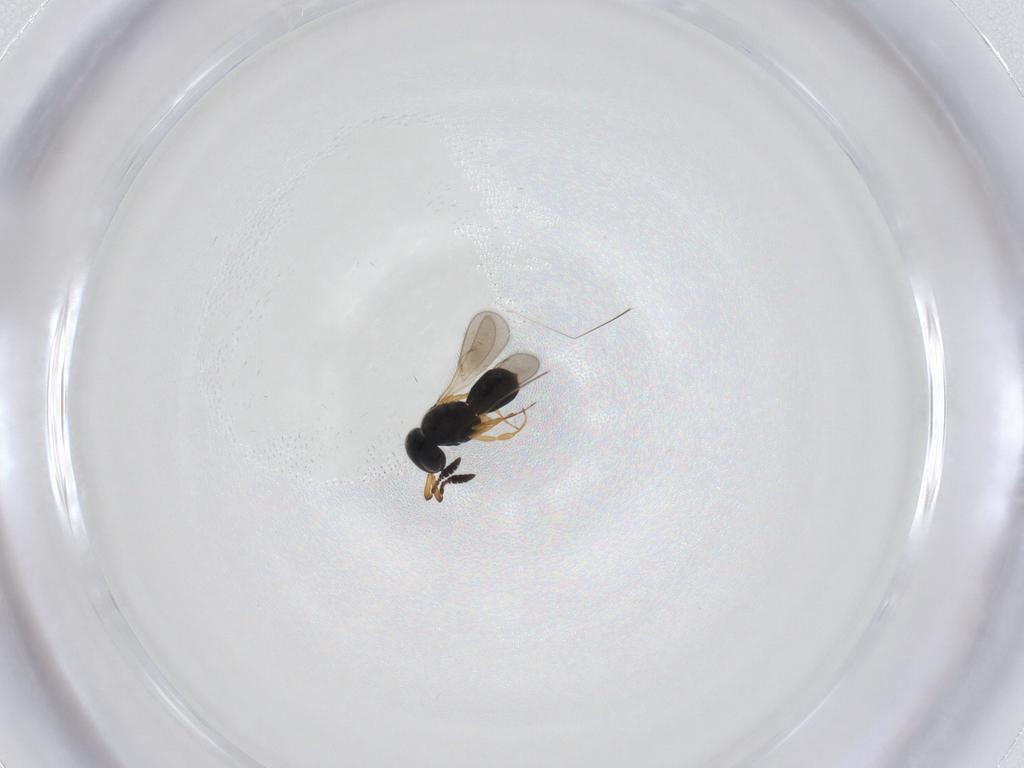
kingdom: Animalia
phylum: Arthropoda
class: Insecta
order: Hymenoptera
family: Scelionidae
